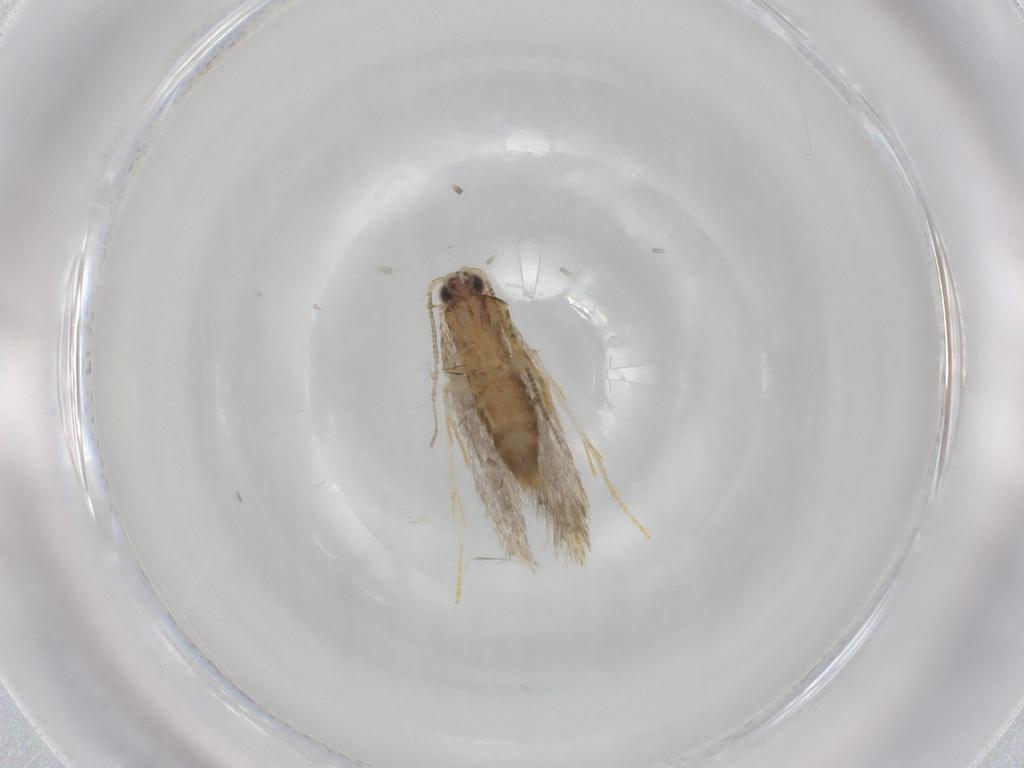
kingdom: Animalia
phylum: Arthropoda
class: Insecta
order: Lepidoptera
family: Tineidae
